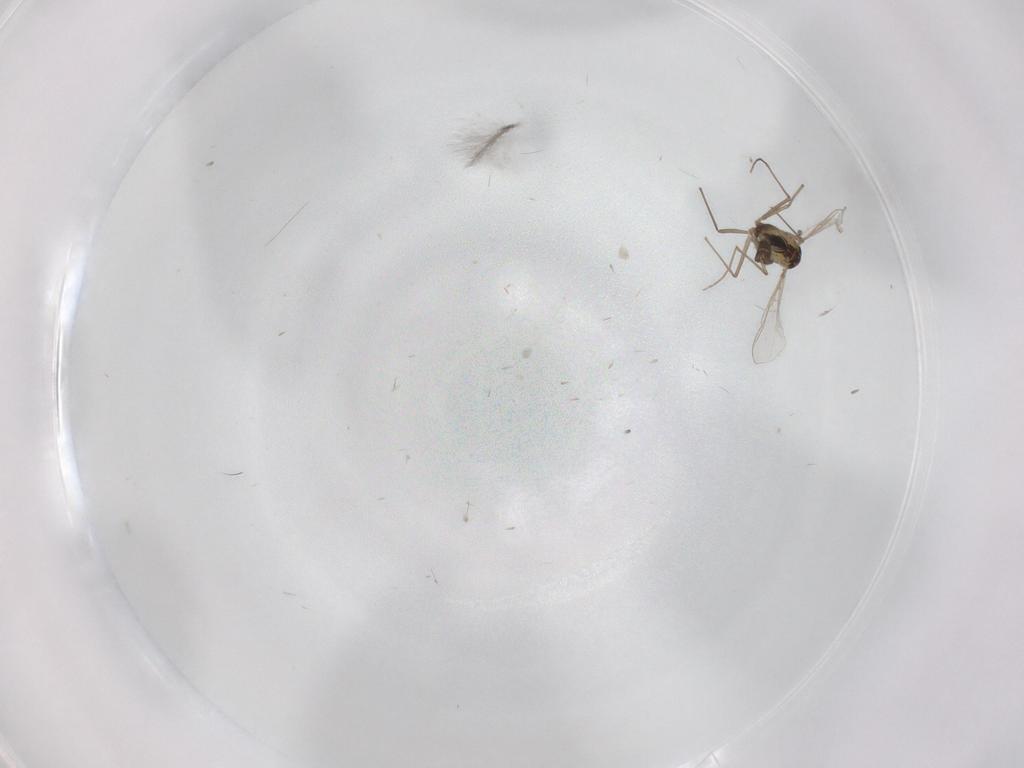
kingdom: Animalia
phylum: Arthropoda
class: Insecta
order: Diptera
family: Chironomidae
